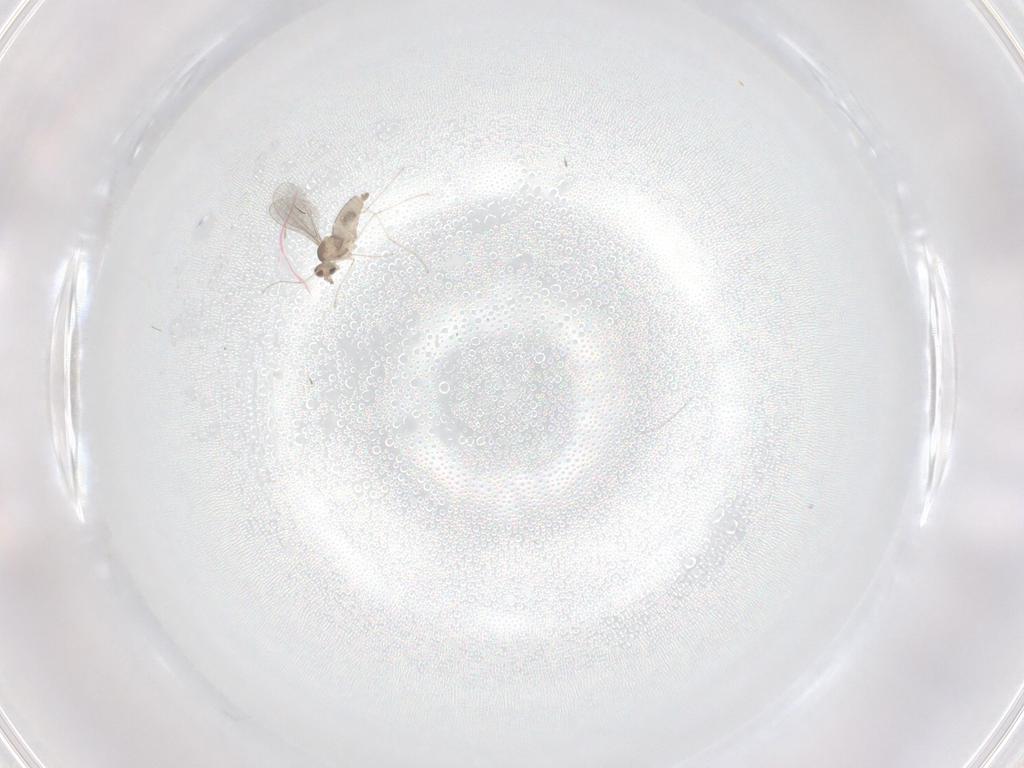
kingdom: Animalia
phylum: Arthropoda
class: Insecta
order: Diptera
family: Cecidomyiidae
